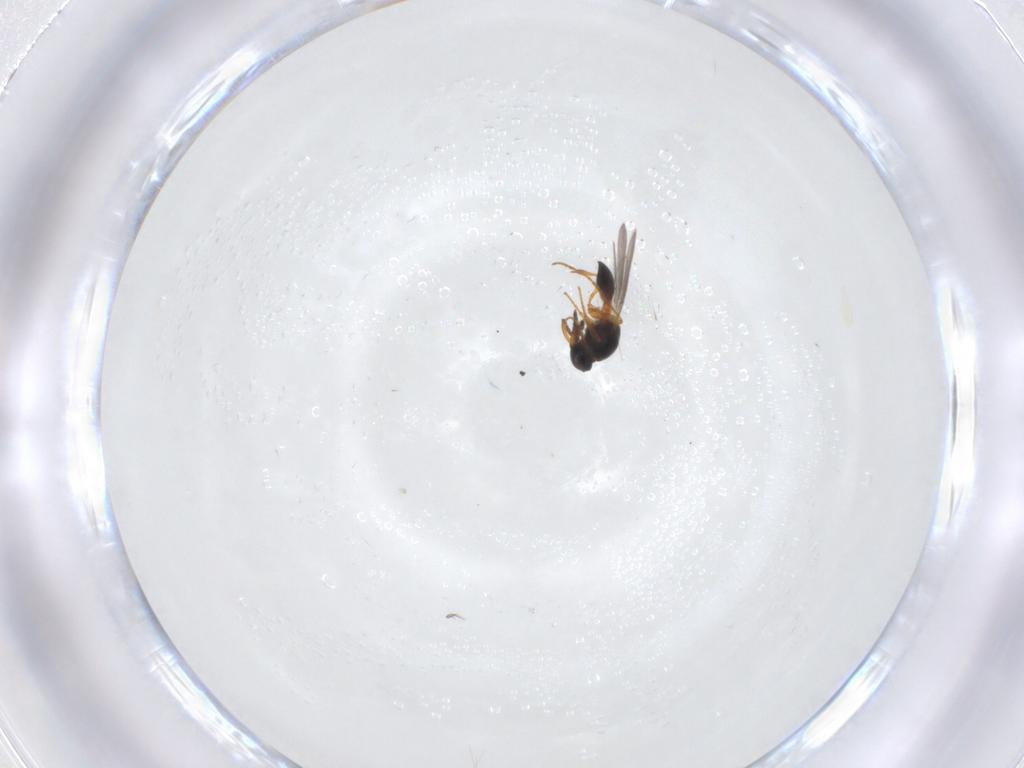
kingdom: Animalia
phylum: Arthropoda
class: Insecta
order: Hymenoptera
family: Platygastridae
